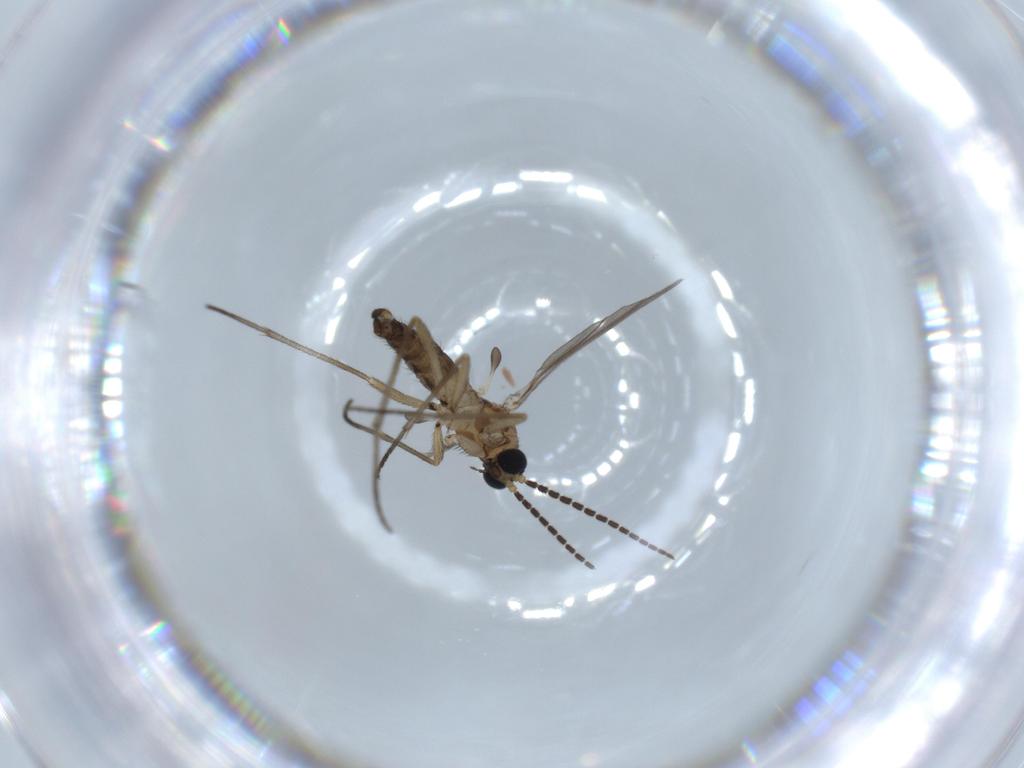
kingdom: Animalia
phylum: Arthropoda
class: Insecta
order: Diptera
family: Sciaridae
